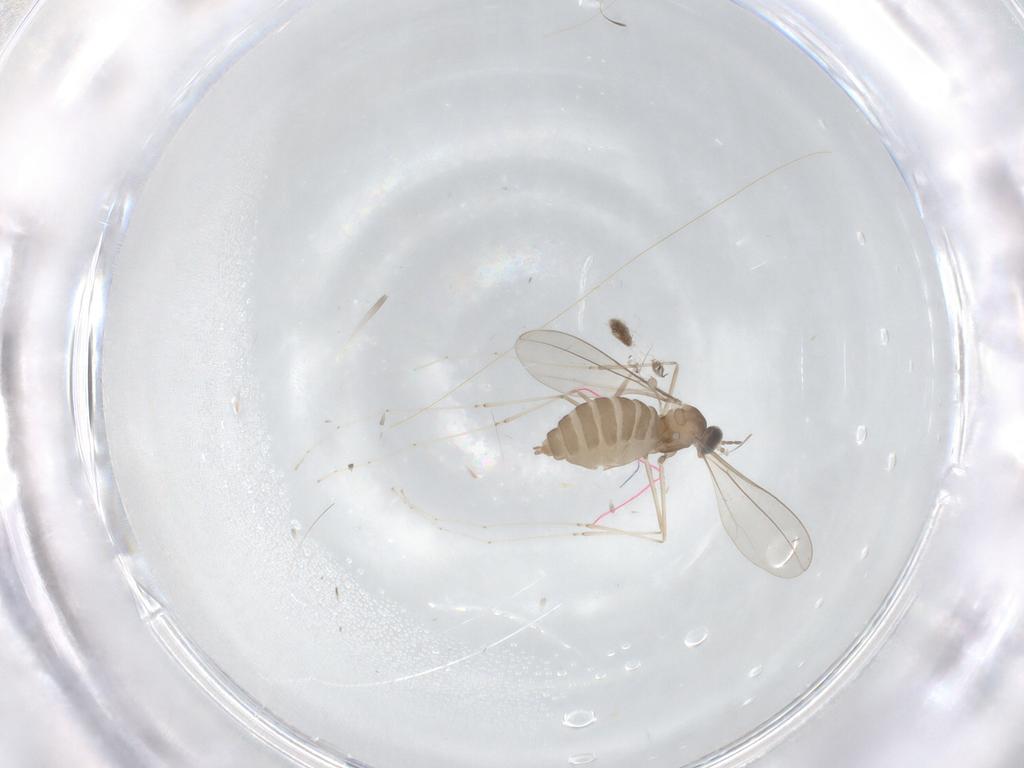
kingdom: Animalia
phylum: Arthropoda
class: Insecta
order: Diptera
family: Cecidomyiidae
